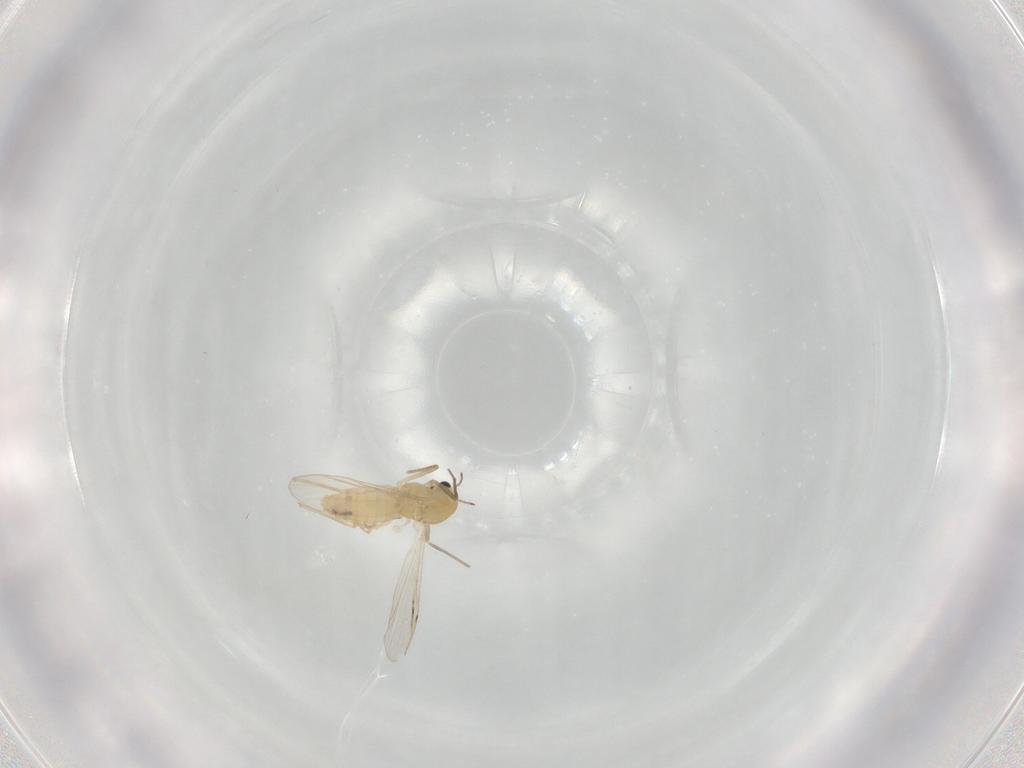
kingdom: Animalia
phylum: Arthropoda
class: Insecta
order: Diptera
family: Chironomidae
